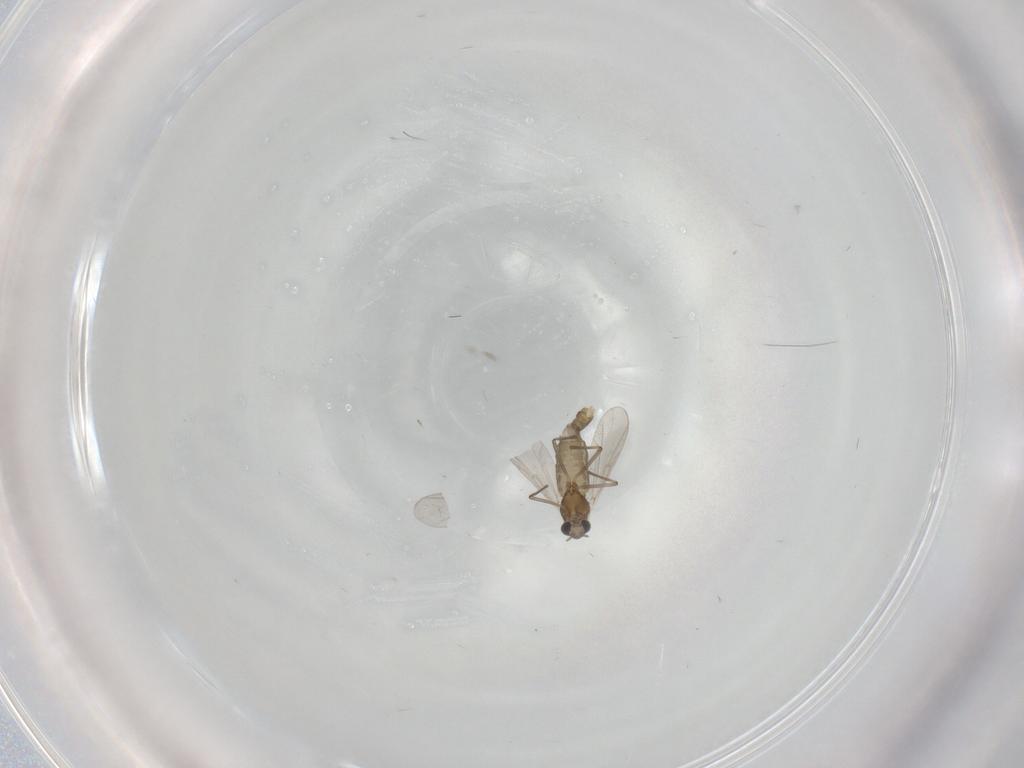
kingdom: Animalia
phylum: Arthropoda
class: Insecta
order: Diptera
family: Chironomidae
